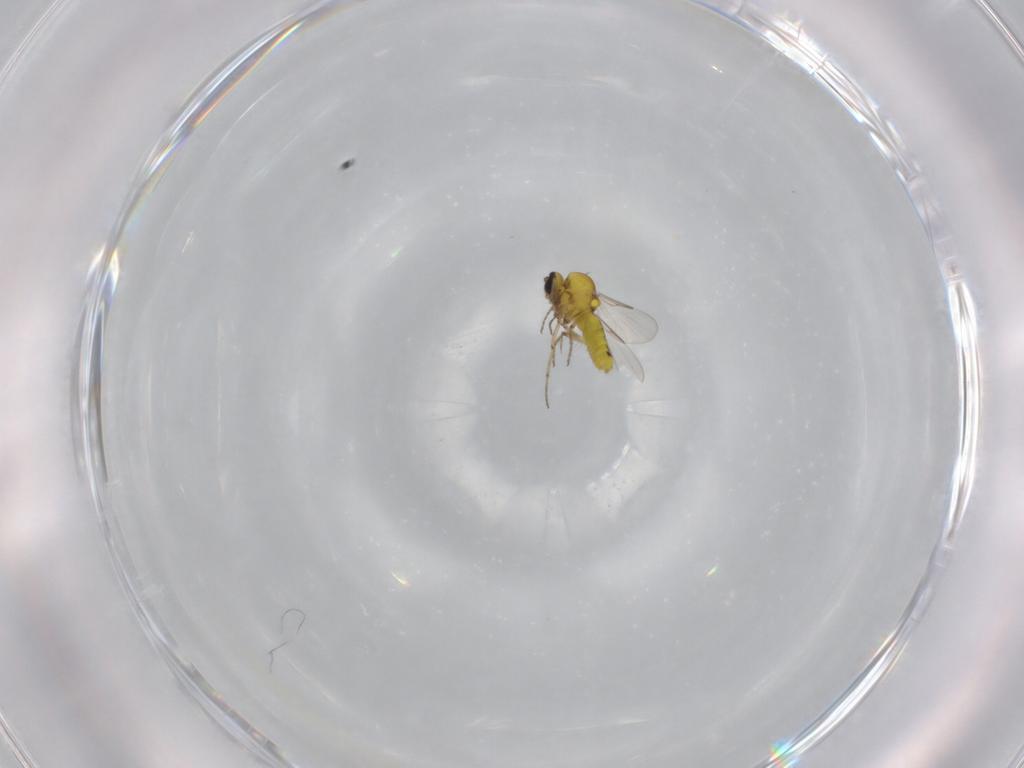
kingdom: Animalia
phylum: Arthropoda
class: Insecta
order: Diptera
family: Ceratopogonidae
